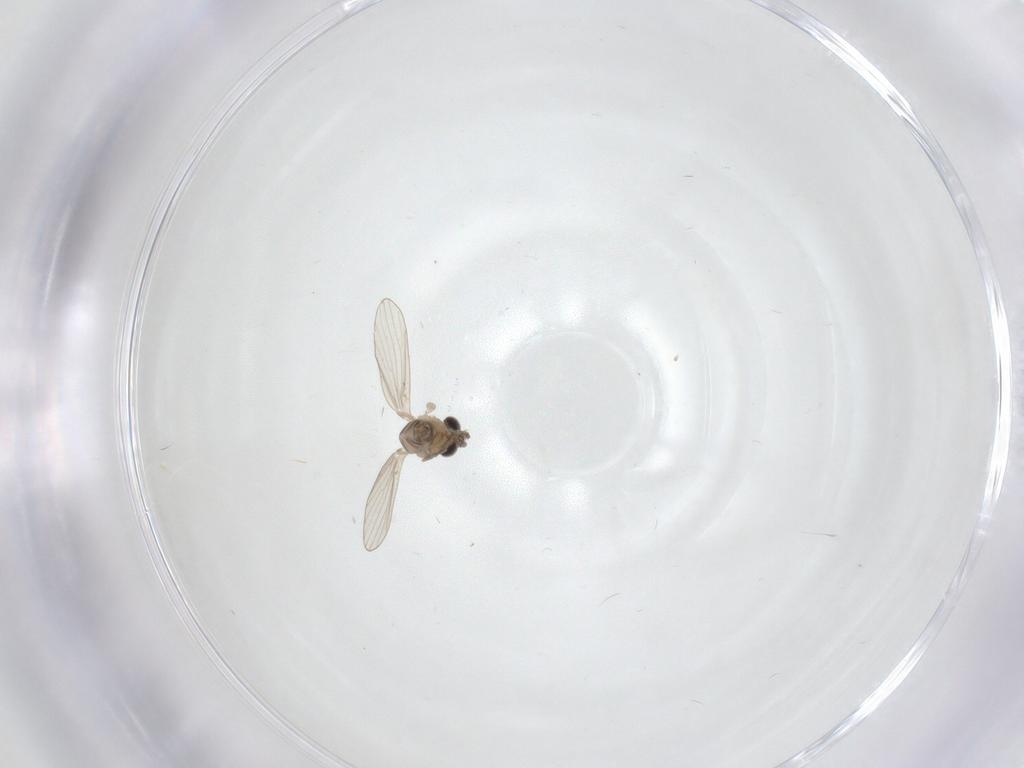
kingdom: Animalia
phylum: Arthropoda
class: Insecta
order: Diptera
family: Psychodidae
